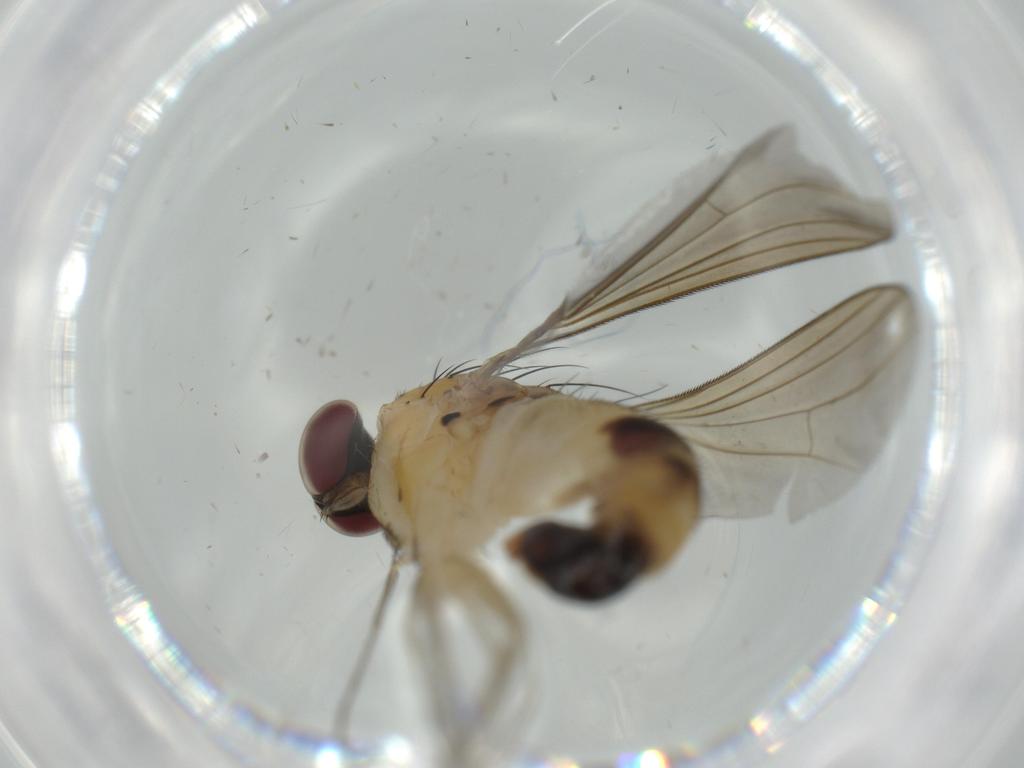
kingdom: Animalia
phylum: Arthropoda
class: Insecta
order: Diptera
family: Dolichopodidae
